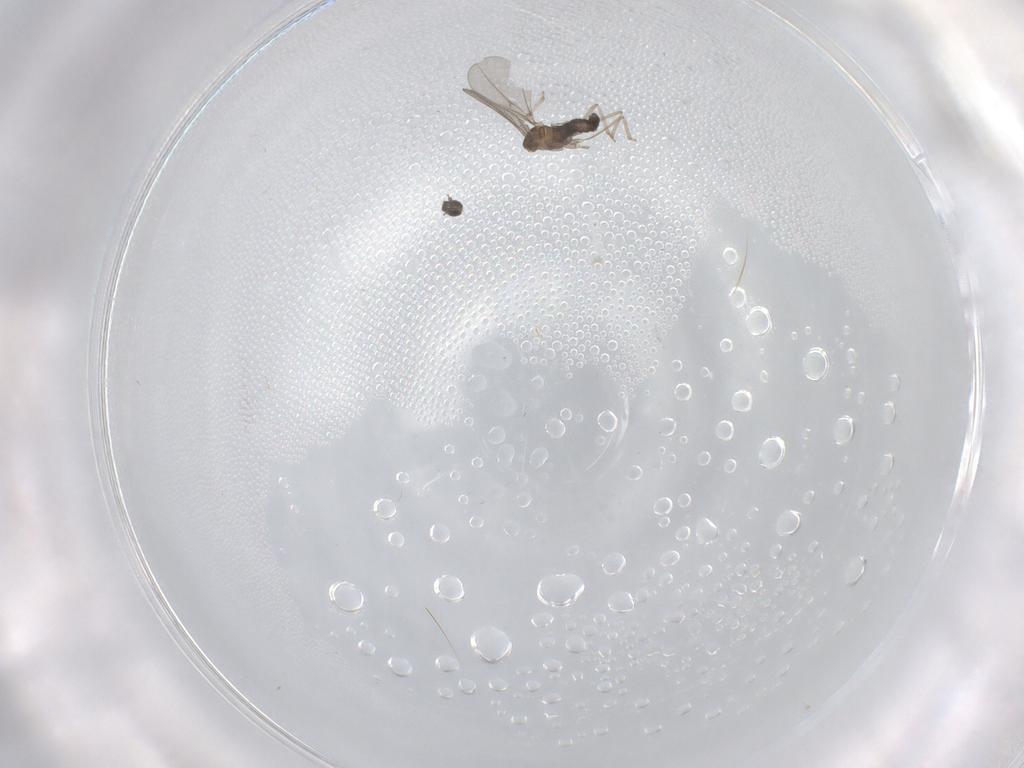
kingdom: Animalia
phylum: Arthropoda
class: Insecta
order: Diptera
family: Cecidomyiidae
